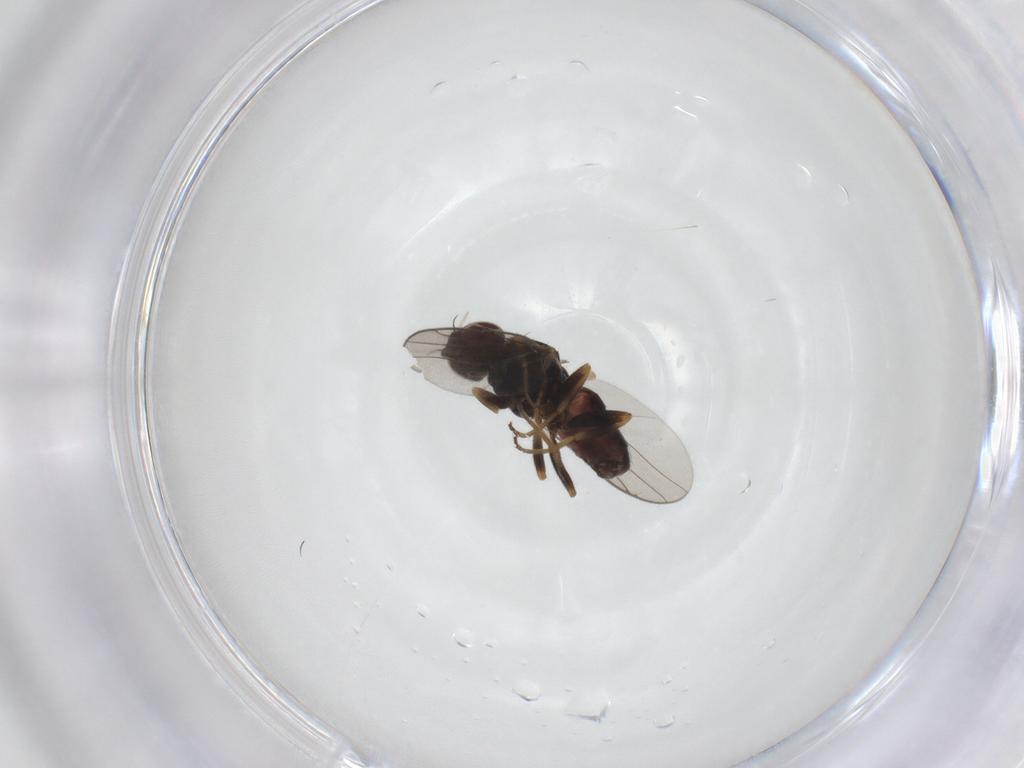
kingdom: Animalia
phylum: Arthropoda
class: Insecta
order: Diptera
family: Chloropidae
